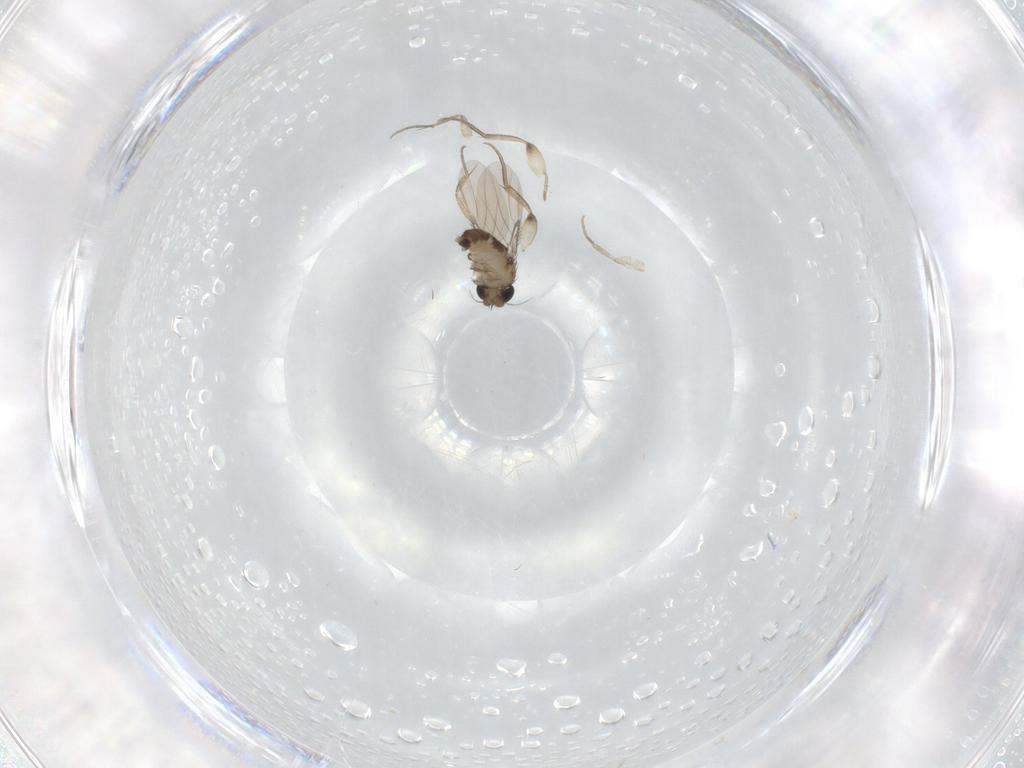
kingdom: Animalia
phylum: Arthropoda
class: Insecta
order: Diptera
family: Phoridae
